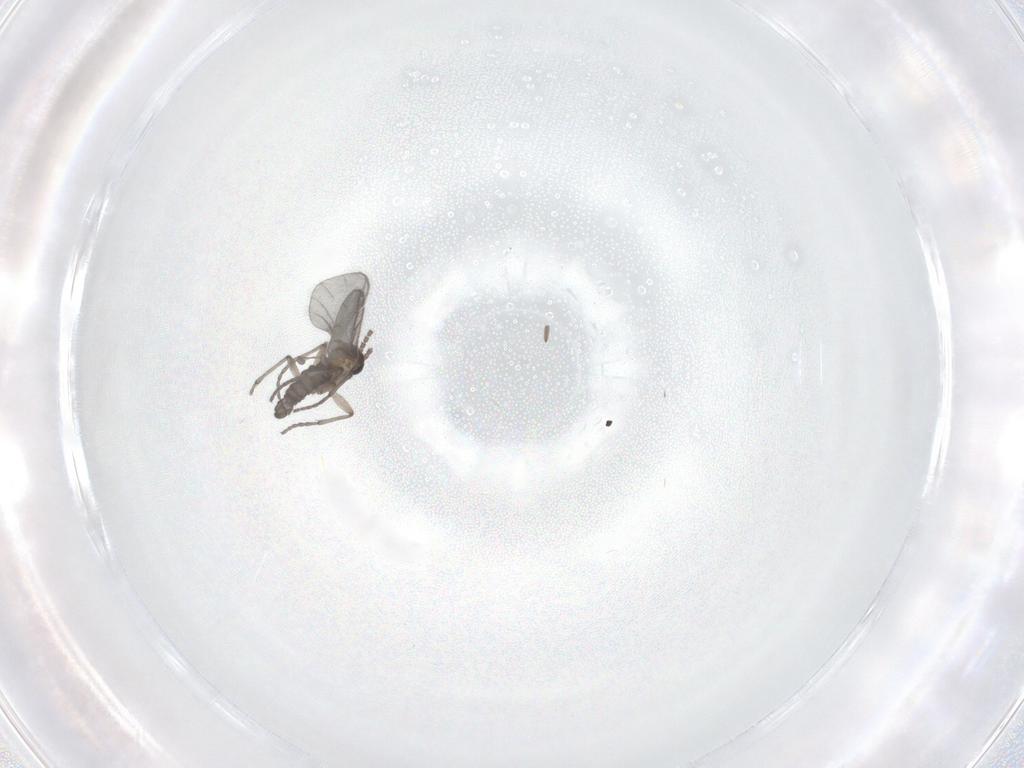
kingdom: Animalia
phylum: Arthropoda
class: Insecta
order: Diptera
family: Sciaridae
